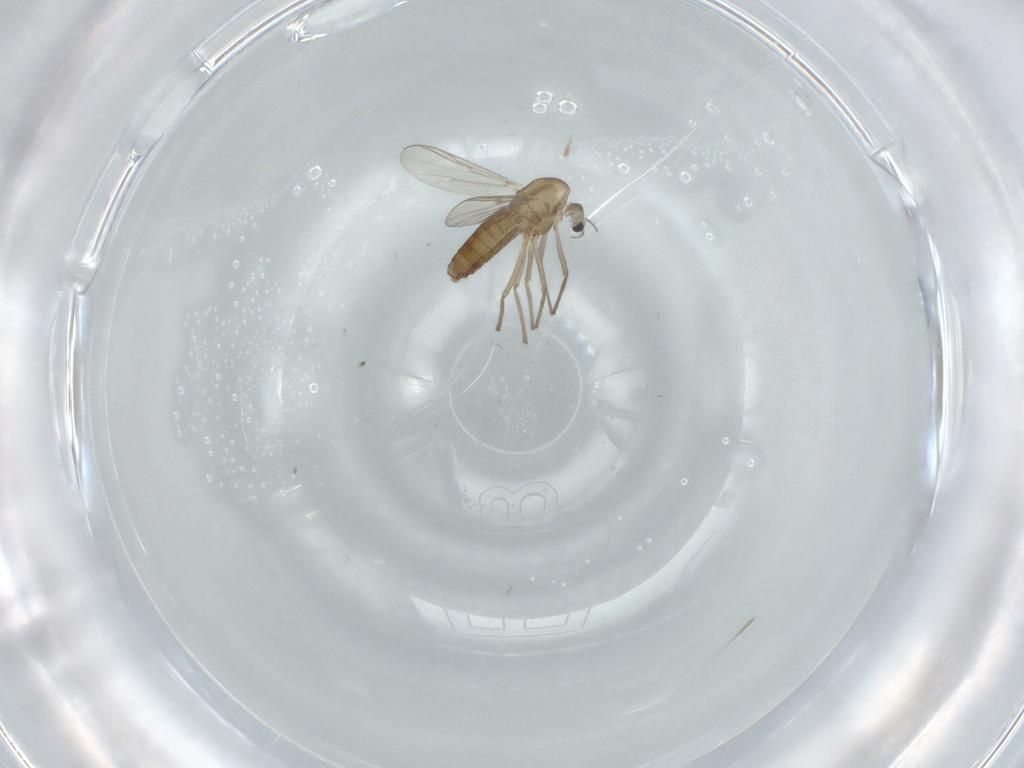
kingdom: Animalia
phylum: Arthropoda
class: Insecta
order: Diptera
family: Chironomidae
